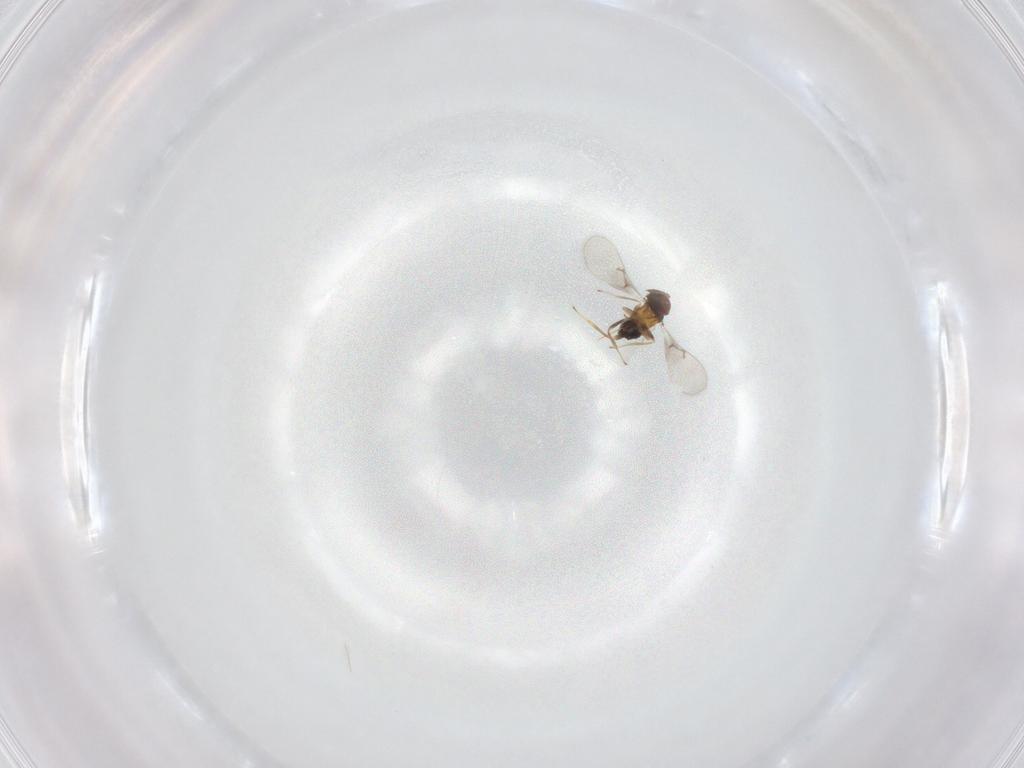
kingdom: Animalia
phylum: Arthropoda
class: Insecta
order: Hymenoptera
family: Trichogrammatidae
